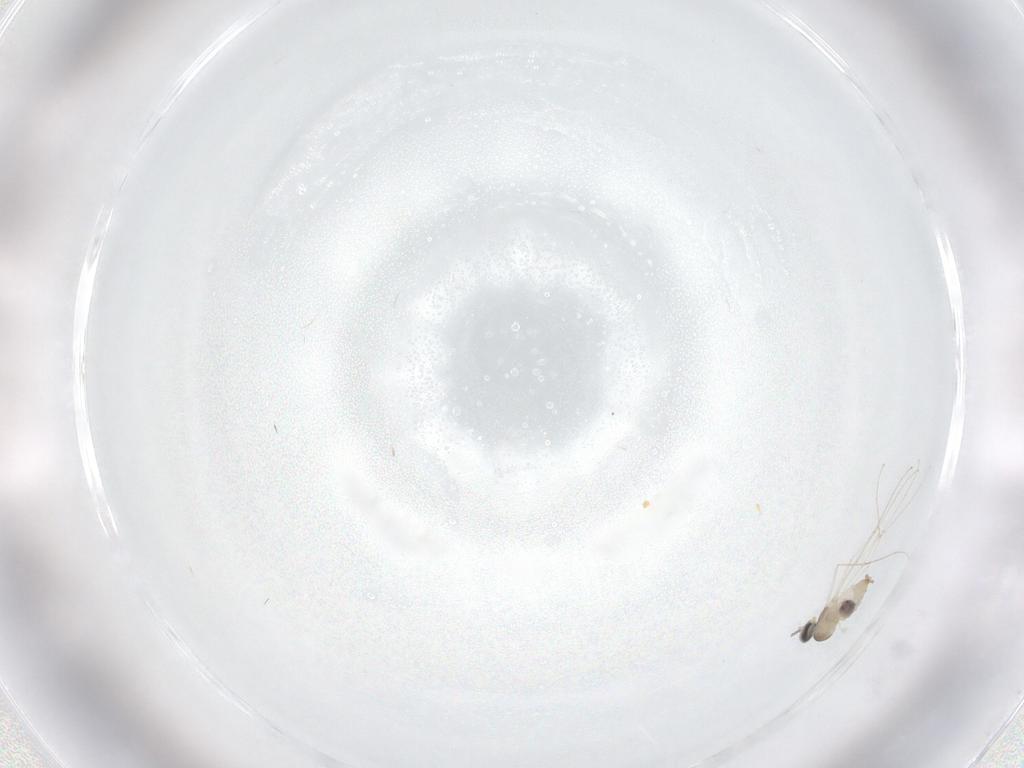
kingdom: Animalia
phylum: Arthropoda
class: Insecta
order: Diptera
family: Cecidomyiidae
